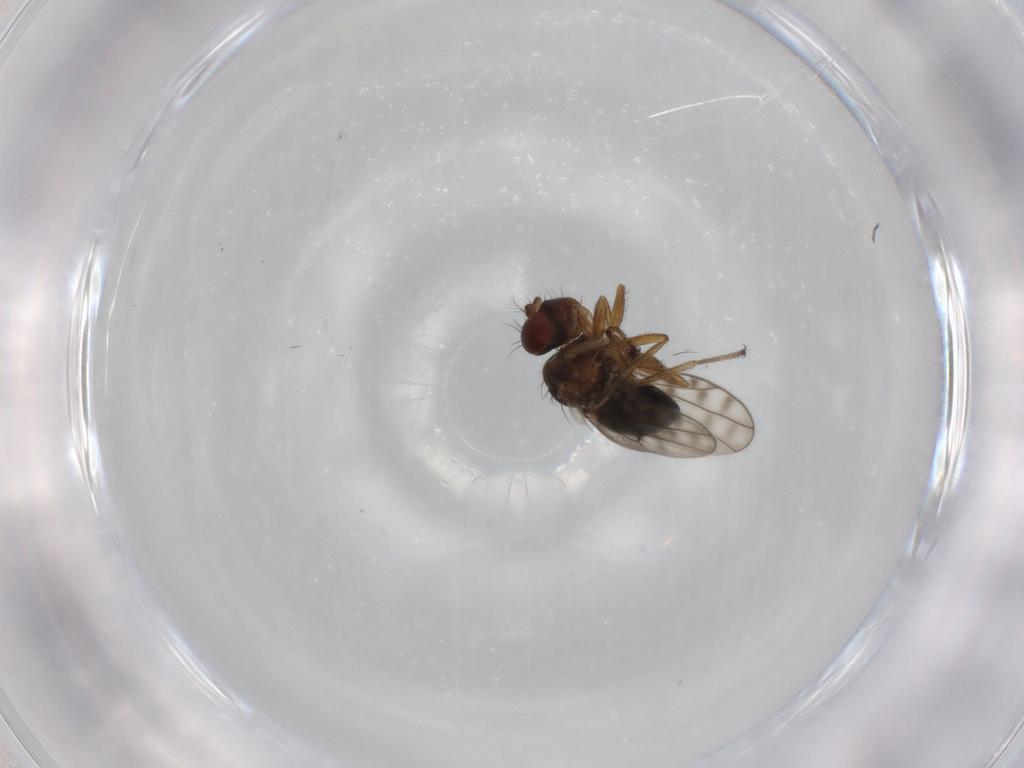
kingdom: Animalia
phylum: Arthropoda
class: Insecta
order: Diptera
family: Ephydridae
